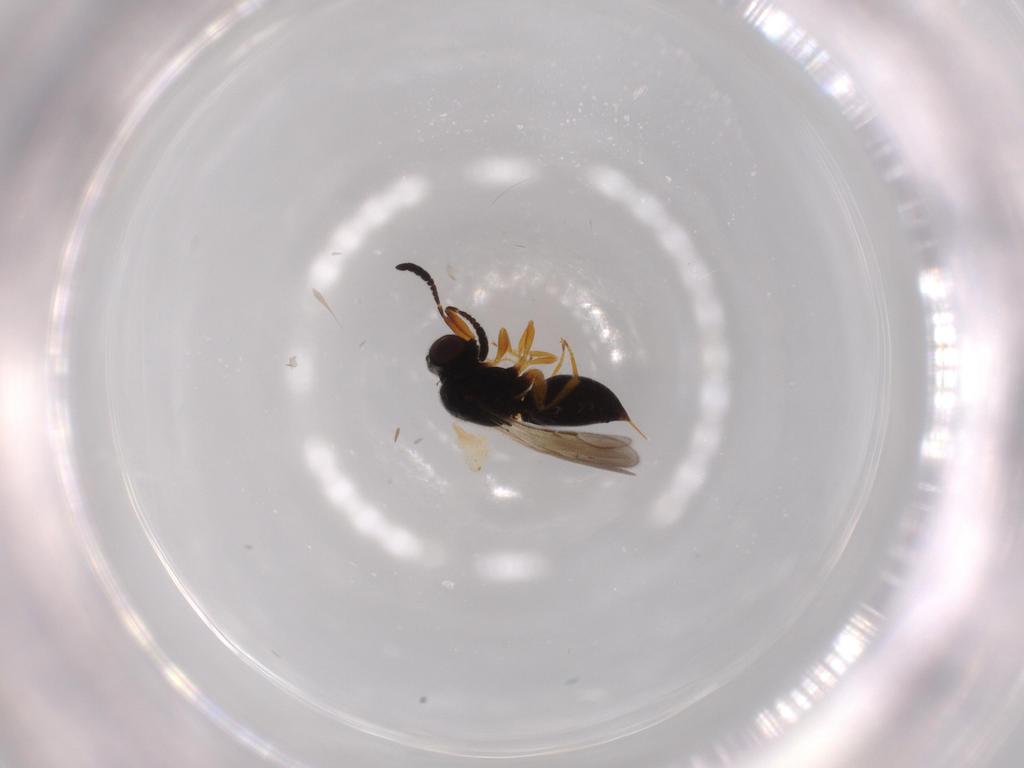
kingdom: Animalia
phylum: Arthropoda
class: Insecta
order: Hymenoptera
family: Ceraphronidae
